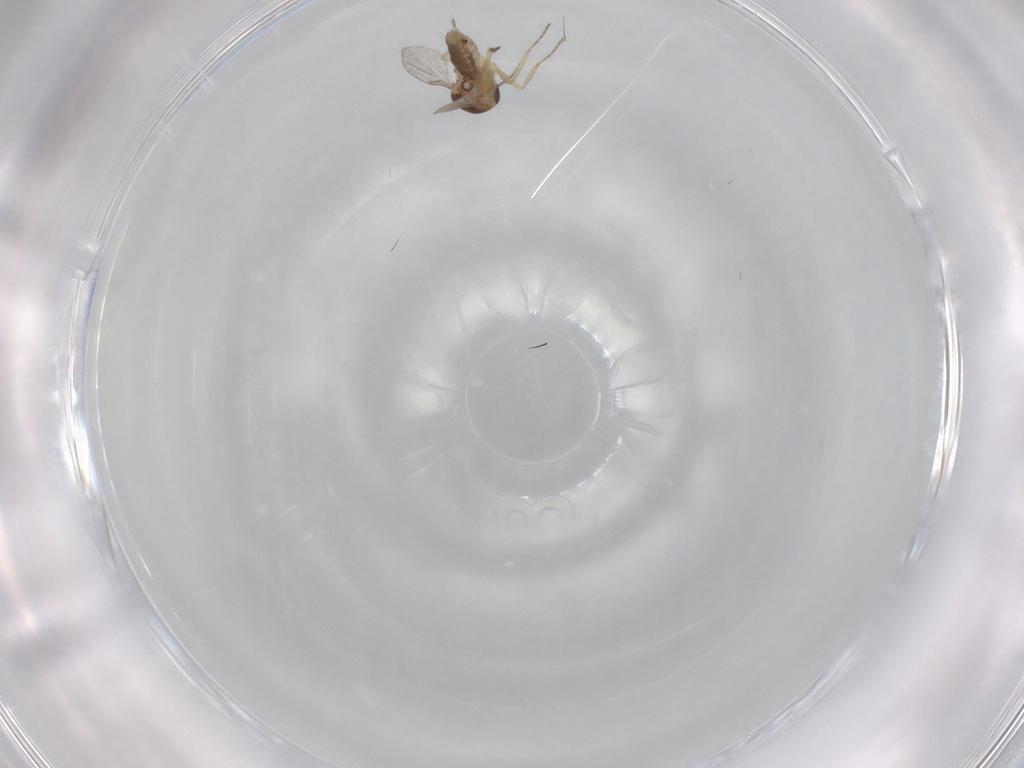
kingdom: Animalia
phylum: Arthropoda
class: Insecta
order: Diptera
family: Ceratopogonidae
